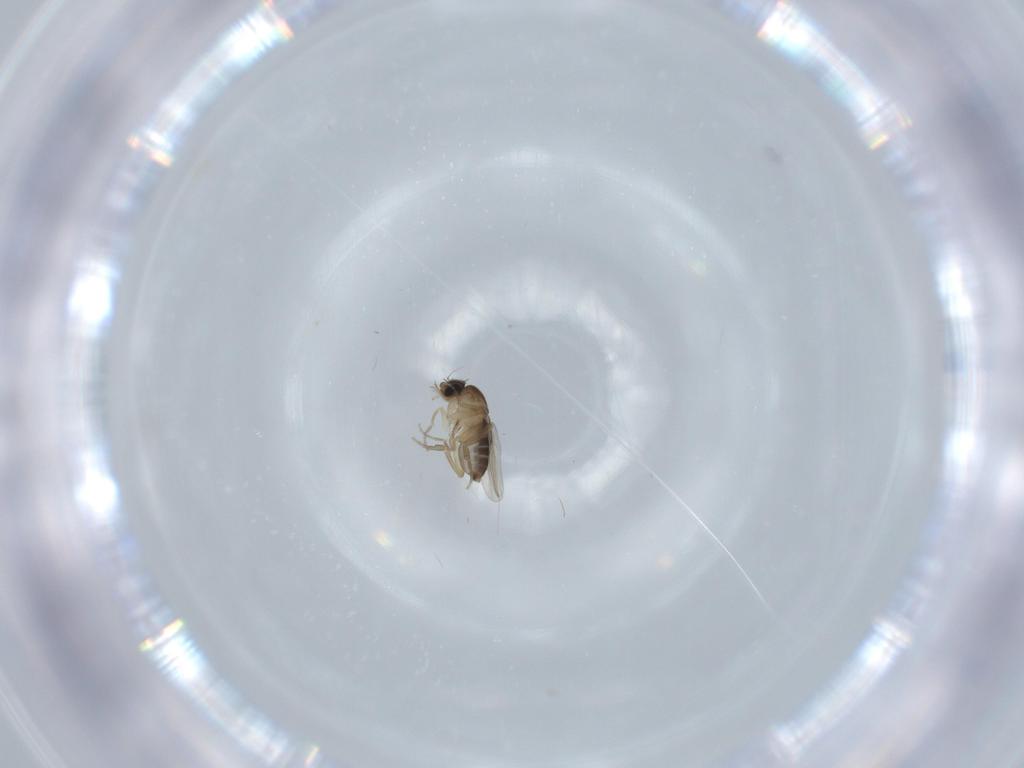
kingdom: Animalia
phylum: Arthropoda
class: Insecta
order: Diptera
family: Phoridae
